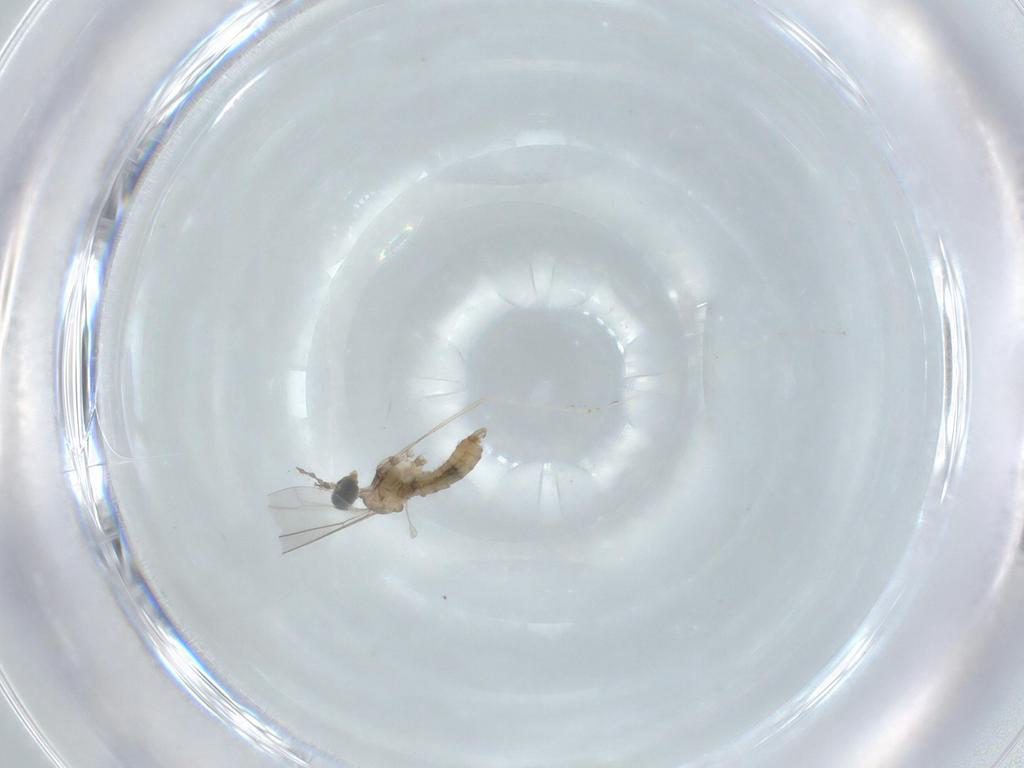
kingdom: Animalia
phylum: Arthropoda
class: Insecta
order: Diptera
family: Cecidomyiidae
